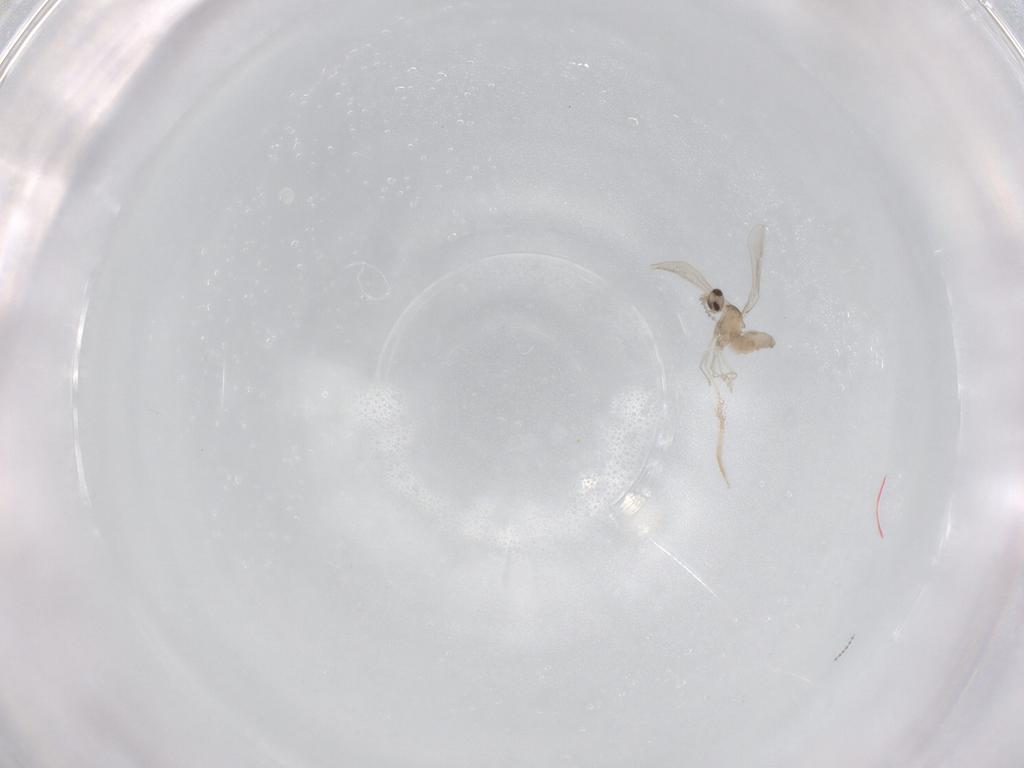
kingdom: Animalia
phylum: Arthropoda
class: Insecta
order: Diptera
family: Cecidomyiidae
